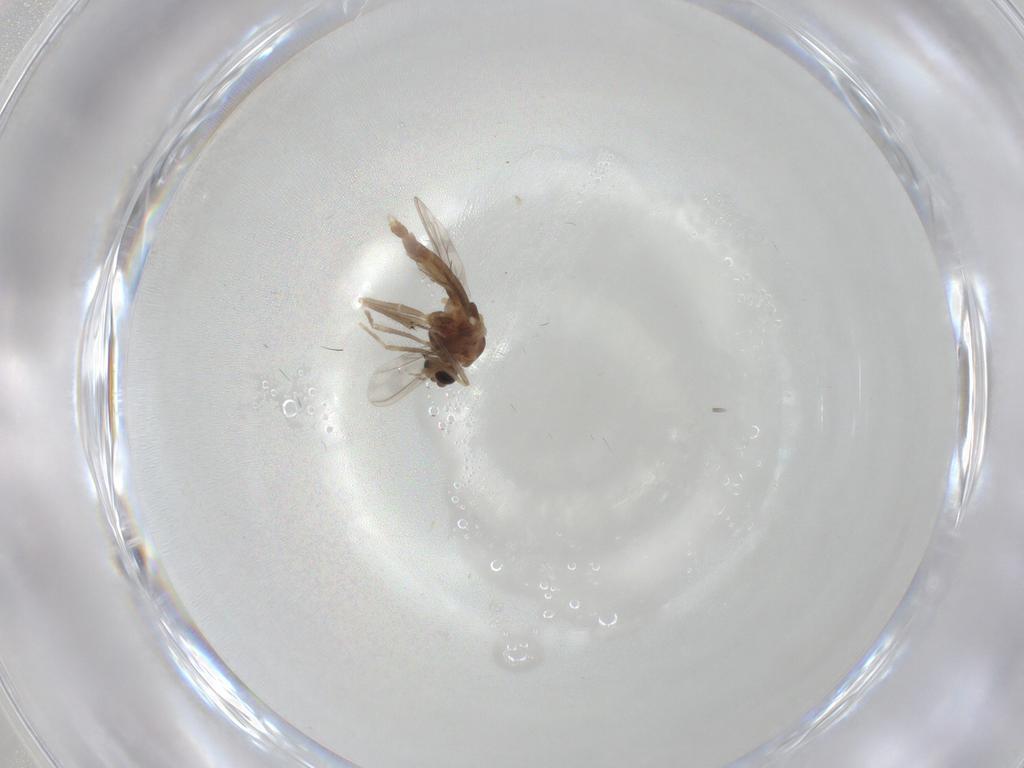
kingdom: Animalia
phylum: Arthropoda
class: Insecta
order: Diptera
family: Chironomidae
